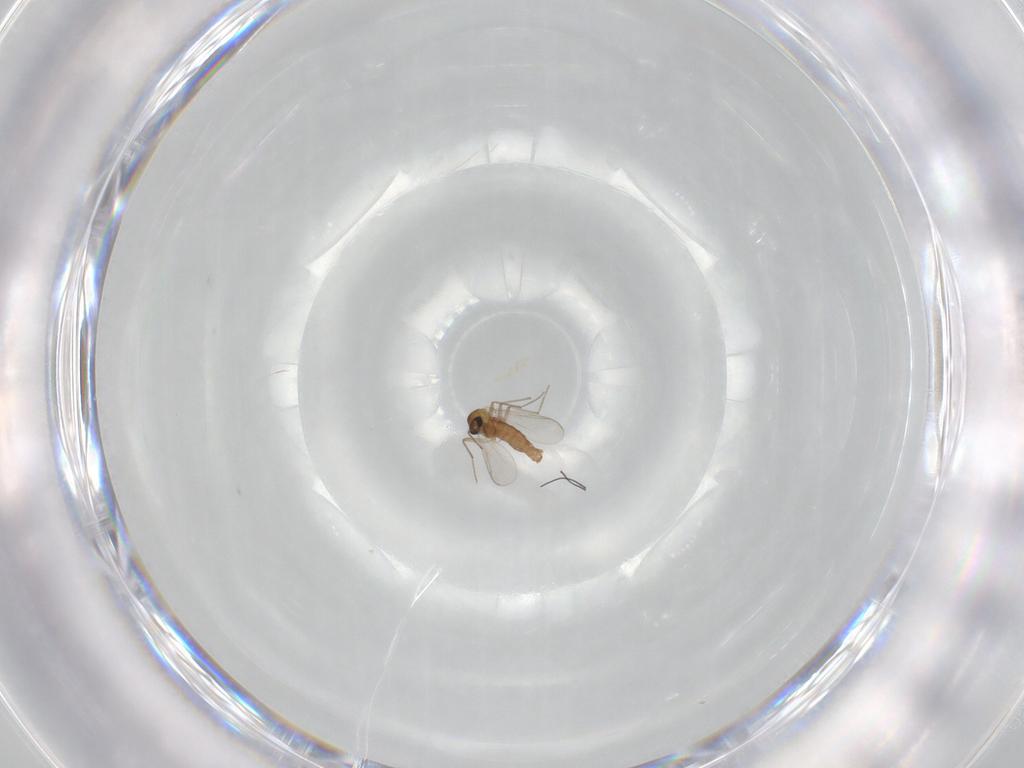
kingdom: Animalia
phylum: Arthropoda
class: Insecta
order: Diptera
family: Chironomidae
